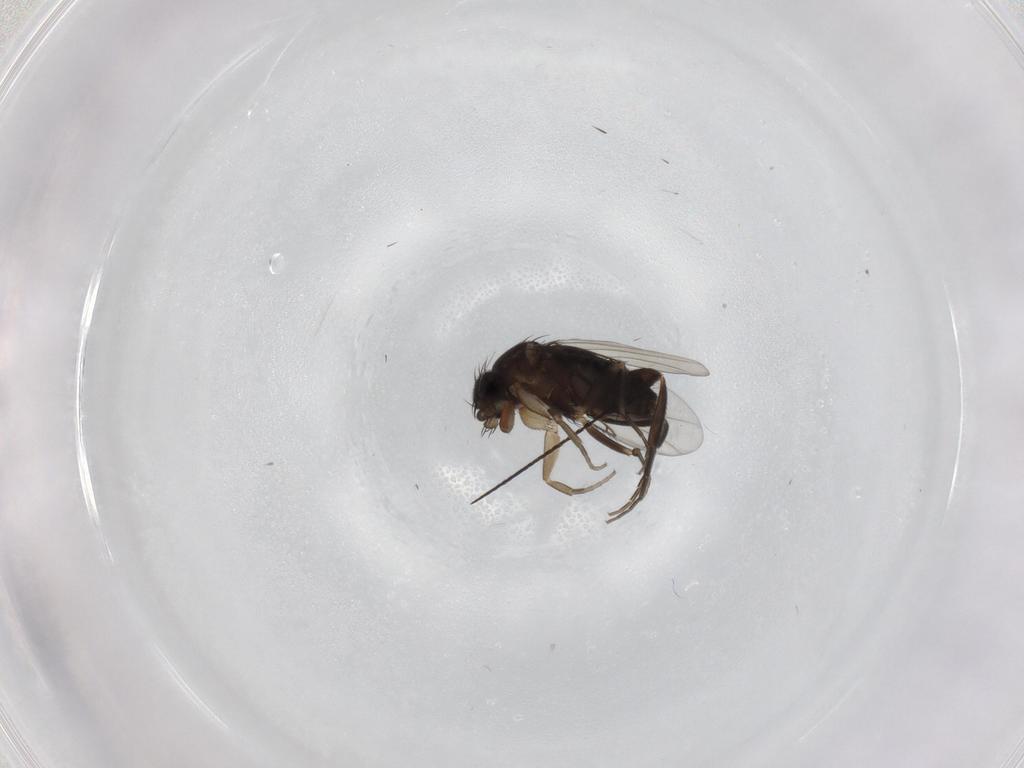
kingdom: Animalia
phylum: Arthropoda
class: Insecta
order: Diptera
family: Phoridae
